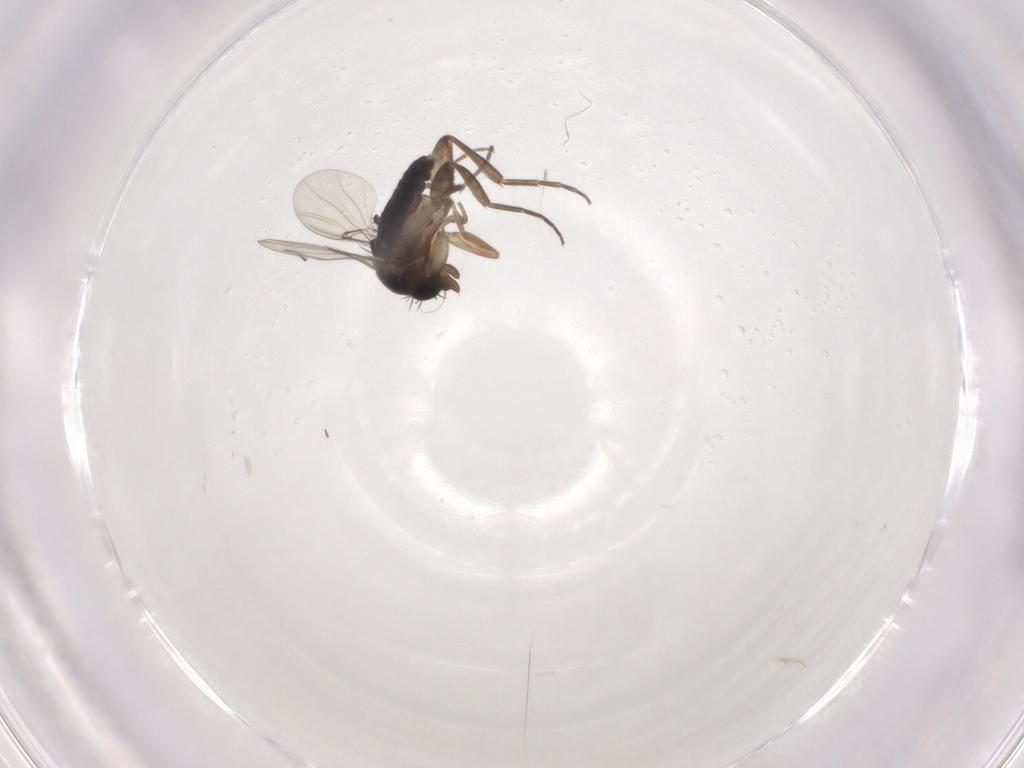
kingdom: Animalia
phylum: Arthropoda
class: Insecta
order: Diptera
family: Phoridae
